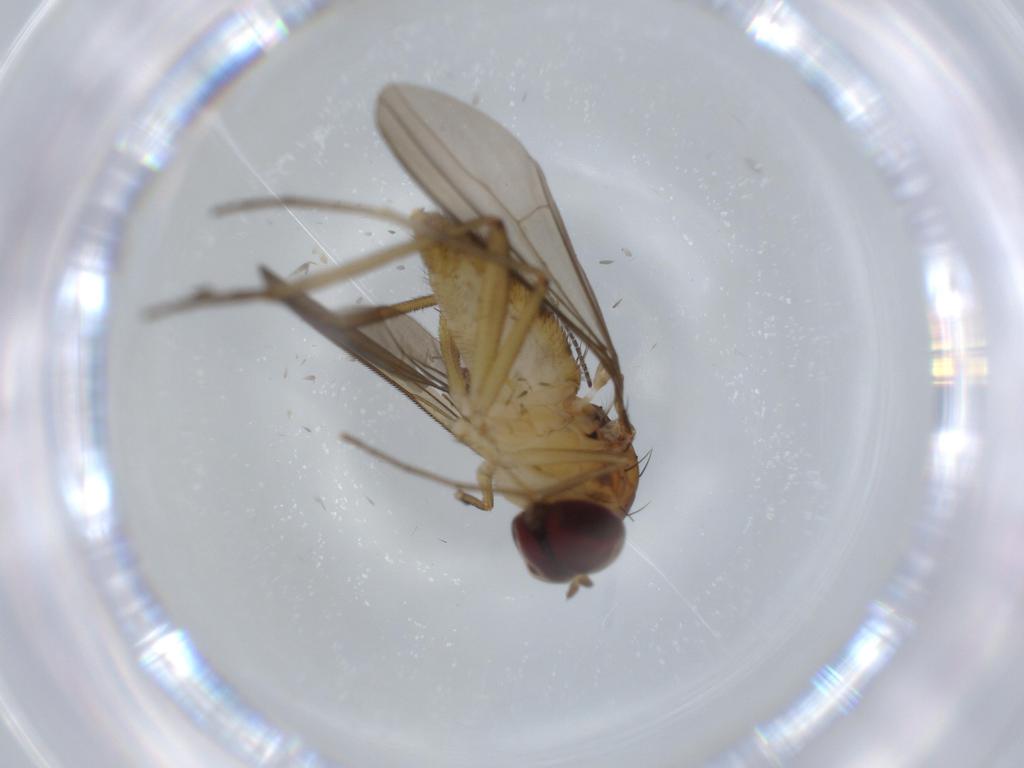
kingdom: Animalia
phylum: Arthropoda
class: Insecta
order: Diptera
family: Sciaridae
